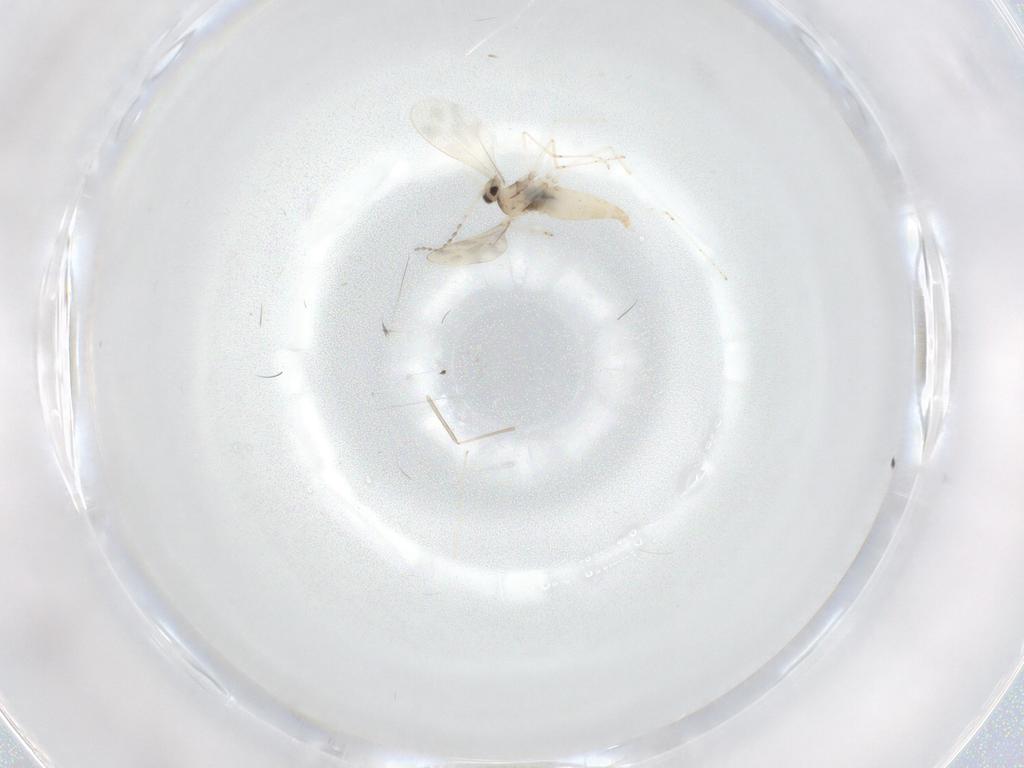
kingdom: Animalia
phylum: Arthropoda
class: Insecta
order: Diptera
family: Cecidomyiidae
